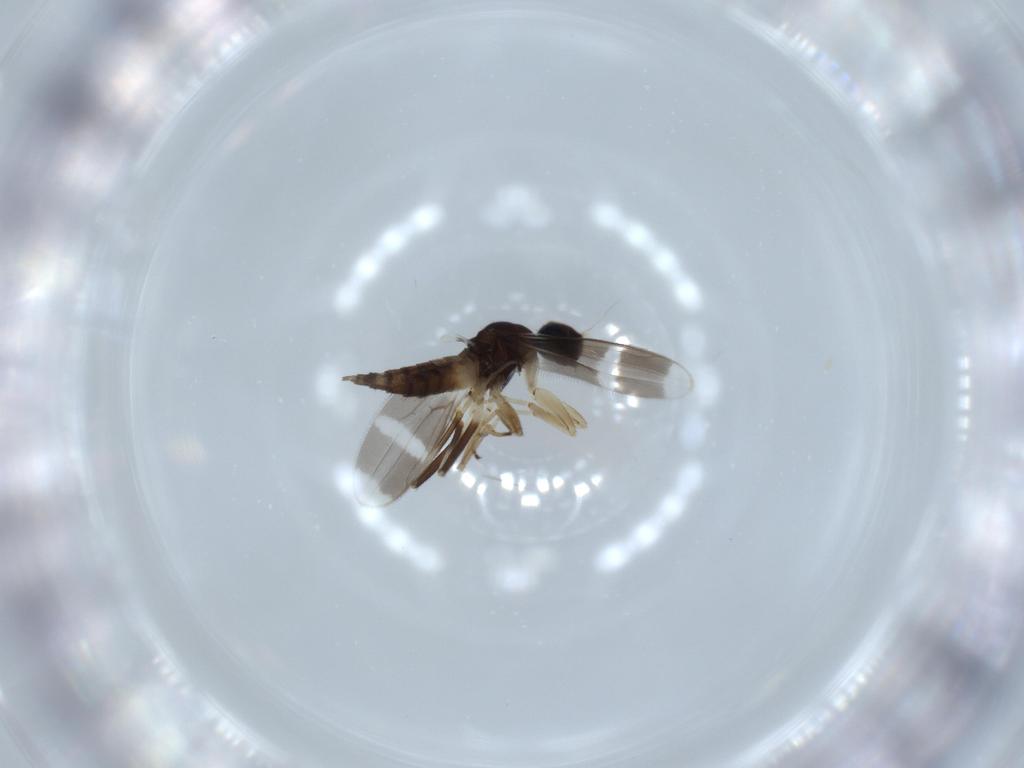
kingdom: Animalia
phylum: Arthropoda
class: Insecta
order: Diptera
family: Hybotidae
